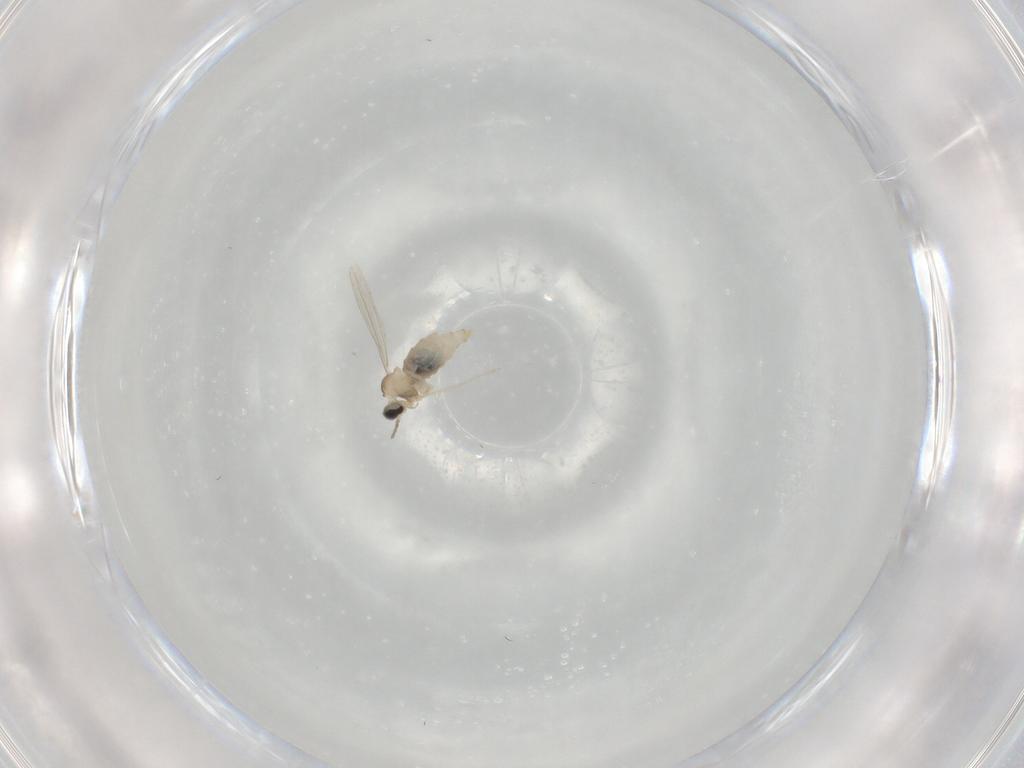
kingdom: Animalia
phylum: Arthropoda
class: Insecta
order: Diptera
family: Cecidomyiidae
